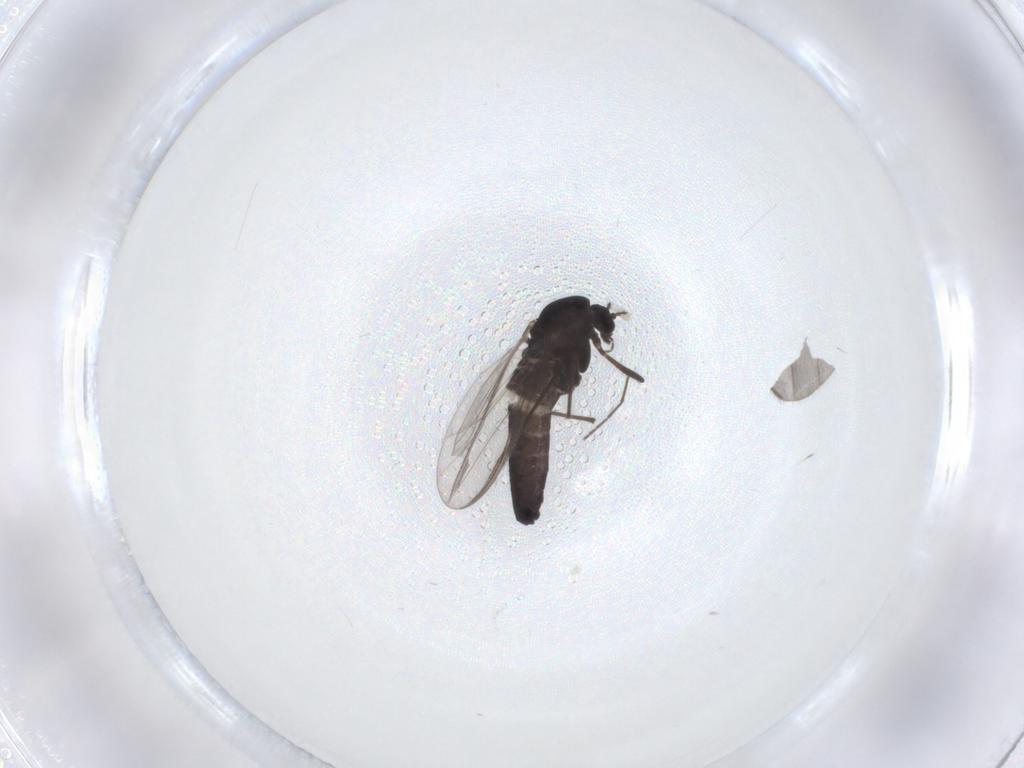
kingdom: Animalia
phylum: Arthropoda
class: Insecta
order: Diptera
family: Chironomidae
